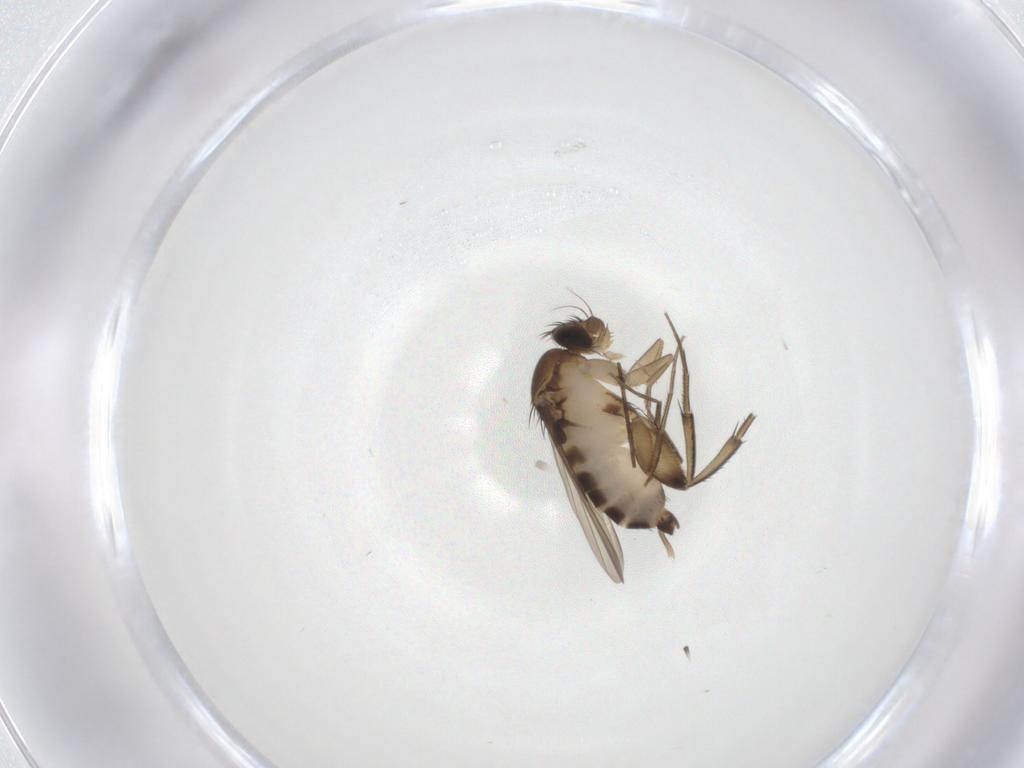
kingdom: Animalia
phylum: Arthropoda
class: Insecta
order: Diptera
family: Phoridae
